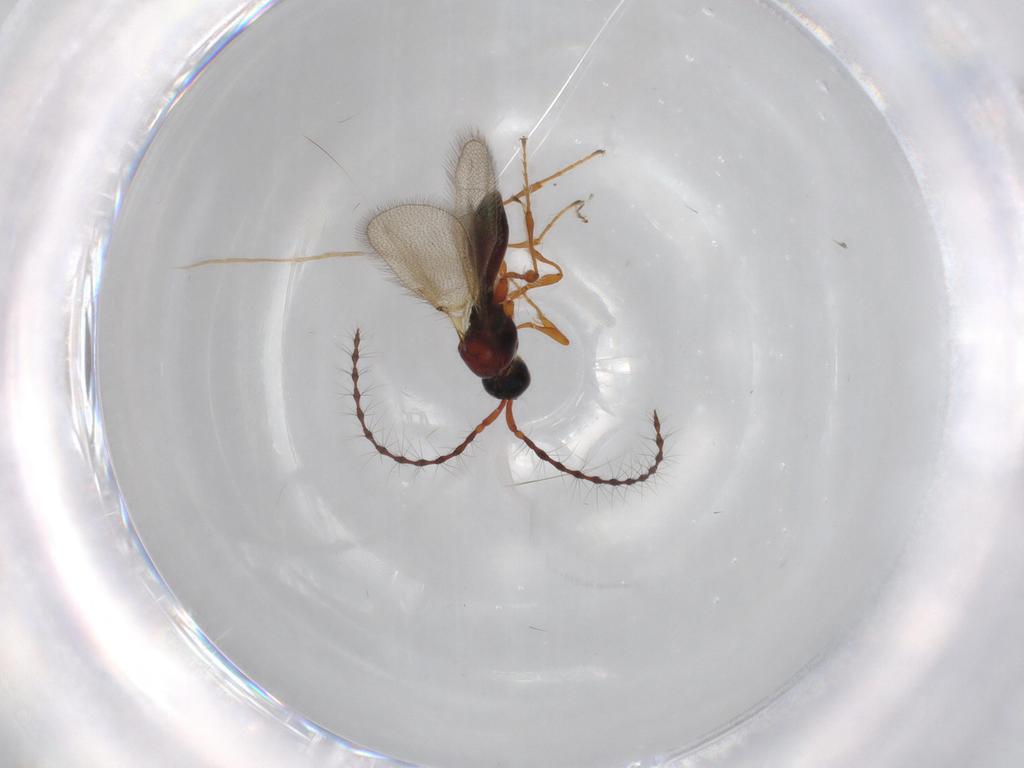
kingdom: Animalia
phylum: Arthropoda
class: Insecta
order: Hymenoptera
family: Diapriidae
